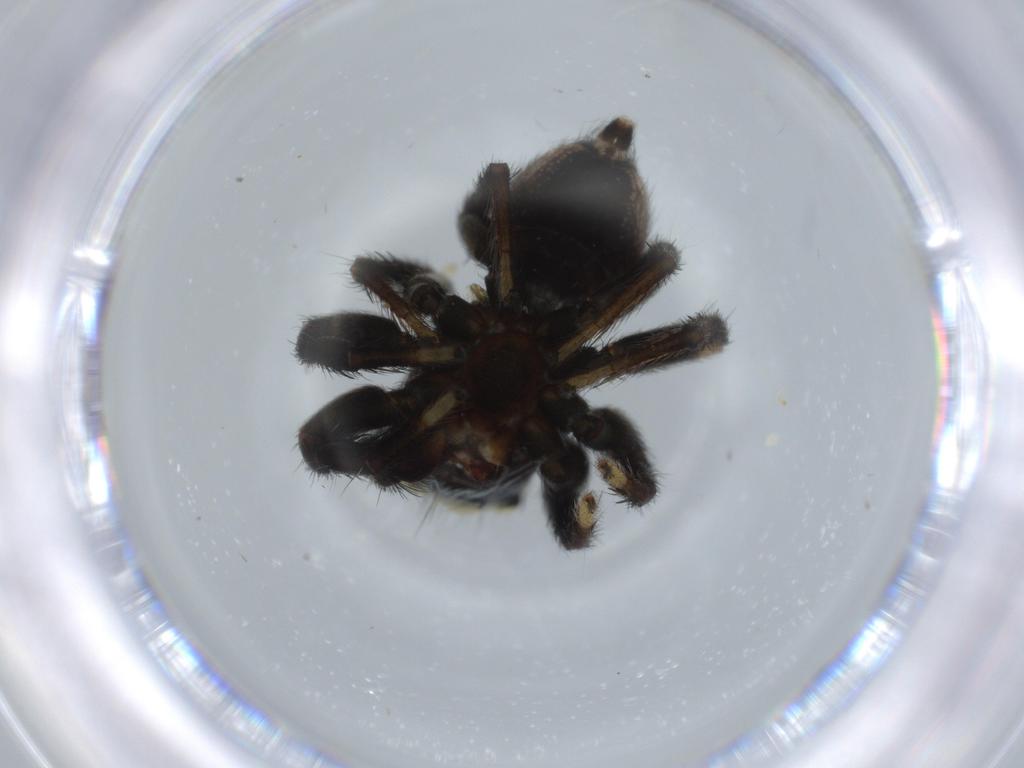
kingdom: Animalia
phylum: Arthropoda
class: Arachnida
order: Araneae
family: Salticidae
